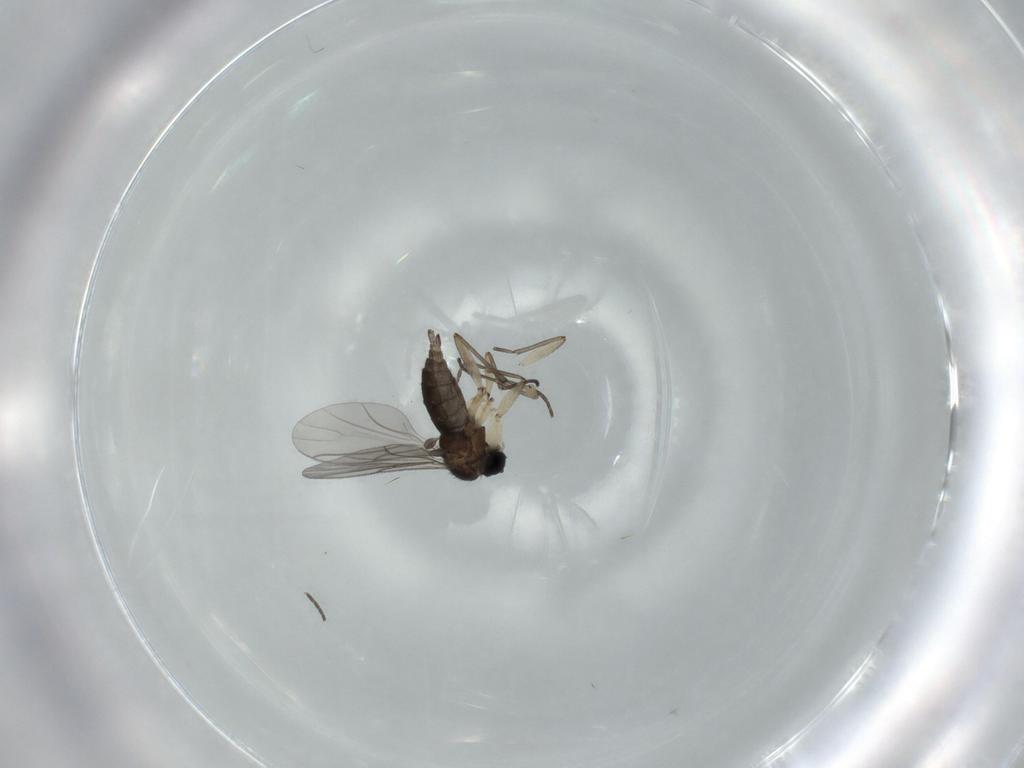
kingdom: Animalia
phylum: Arthropoda
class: Insecta
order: Diptera
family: Sciaridae
